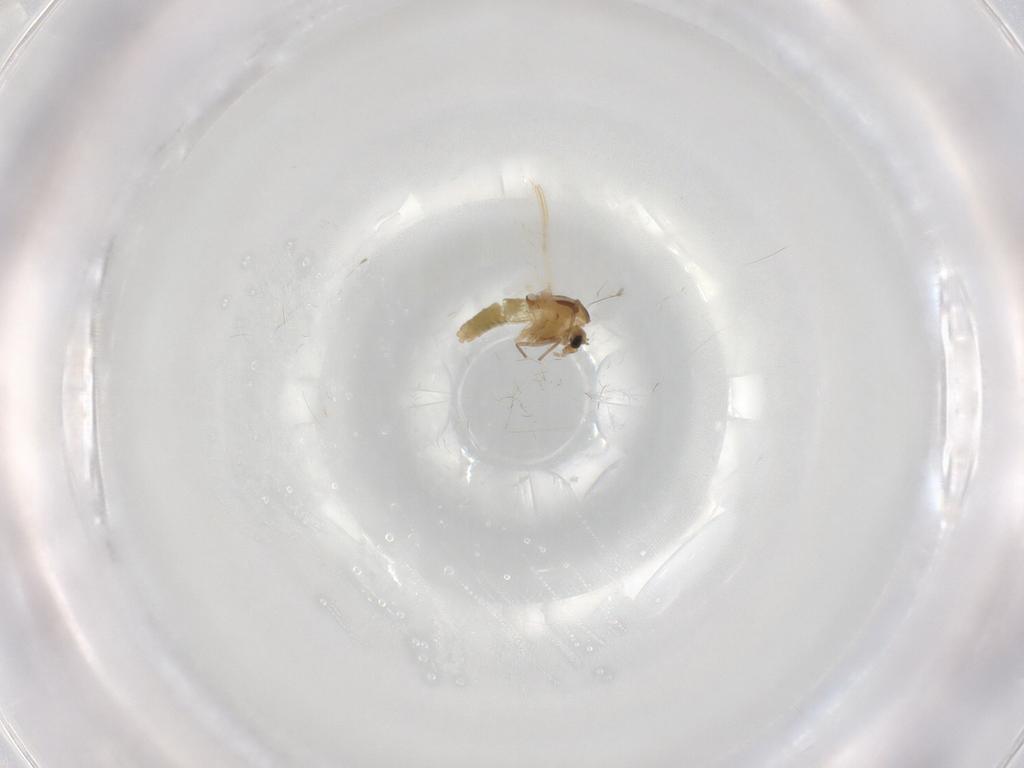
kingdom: Animalia
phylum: Arthropoda
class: Insecta
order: Diptera
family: Chironomidae
